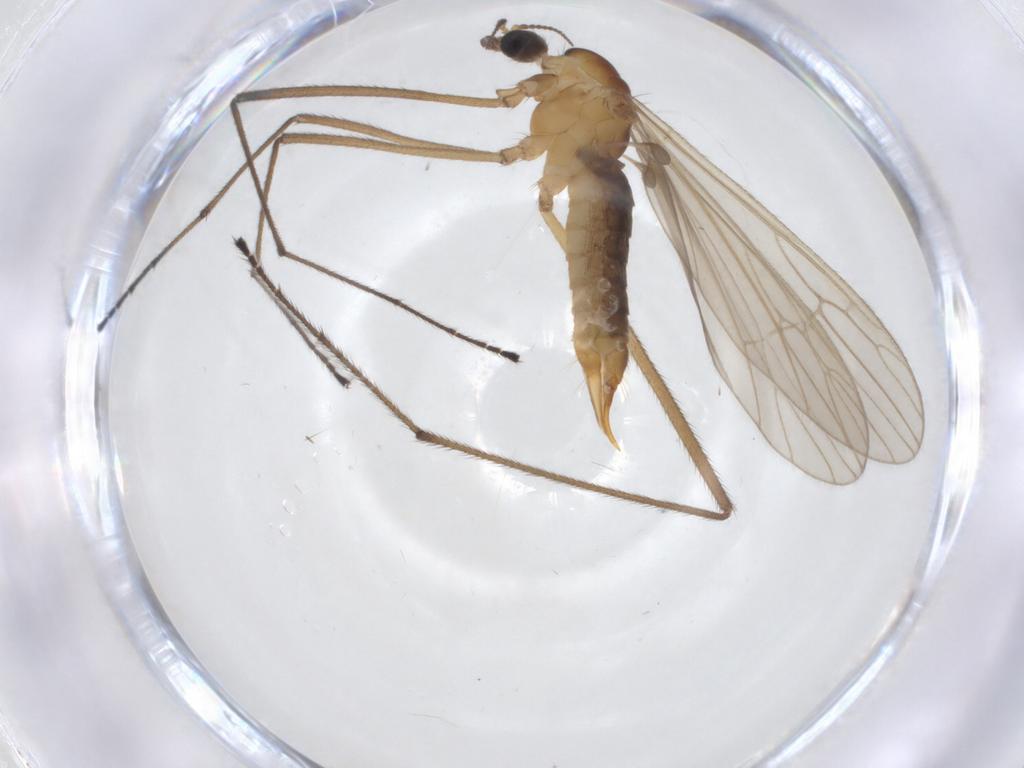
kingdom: Animalia
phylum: Arthropoda
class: Insecta
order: Diptera
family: Limoniidae
